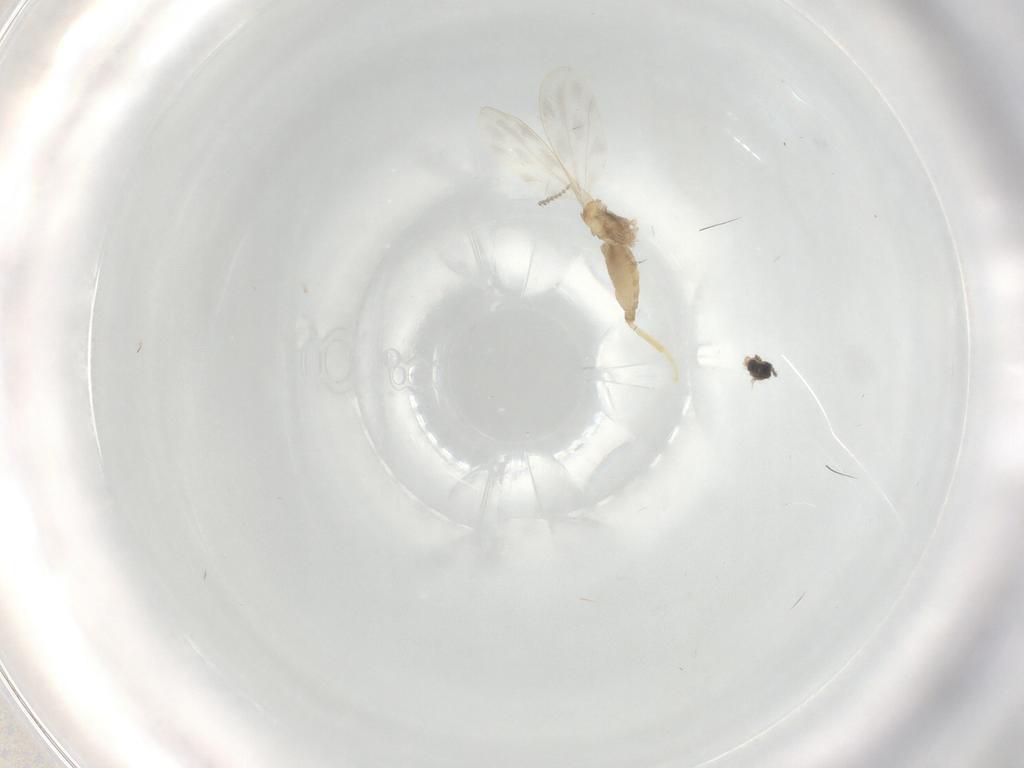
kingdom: Animalia
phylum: Arthropoda
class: Insecta
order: Diptera
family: Cecidomyiidae
